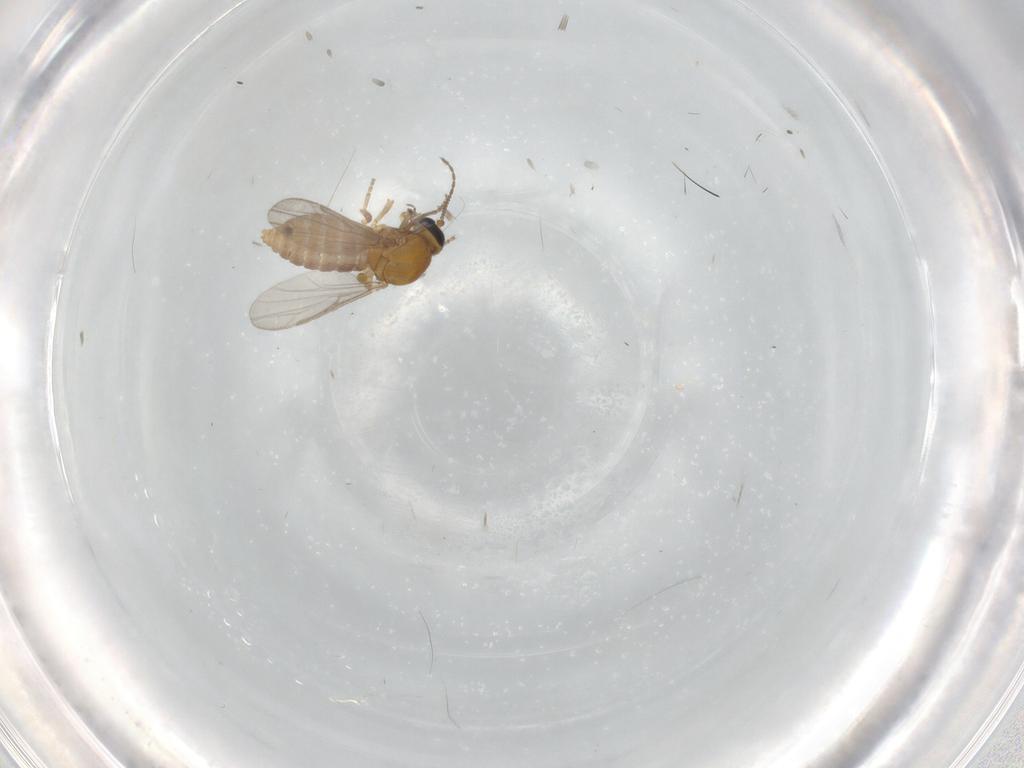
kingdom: Animalia
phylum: Arthropoda
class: Insecta
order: Diptera
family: Chironomidae
